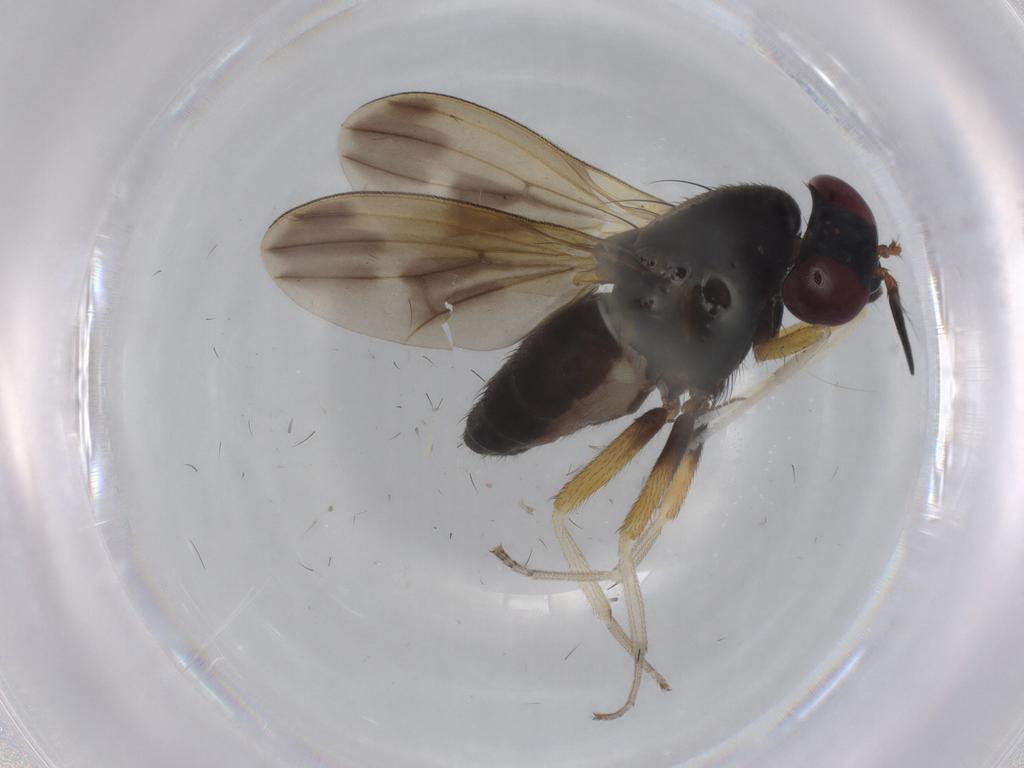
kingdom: Animalia
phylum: Arthropoda
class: Insecta
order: Diptera
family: Lauxaniidae
